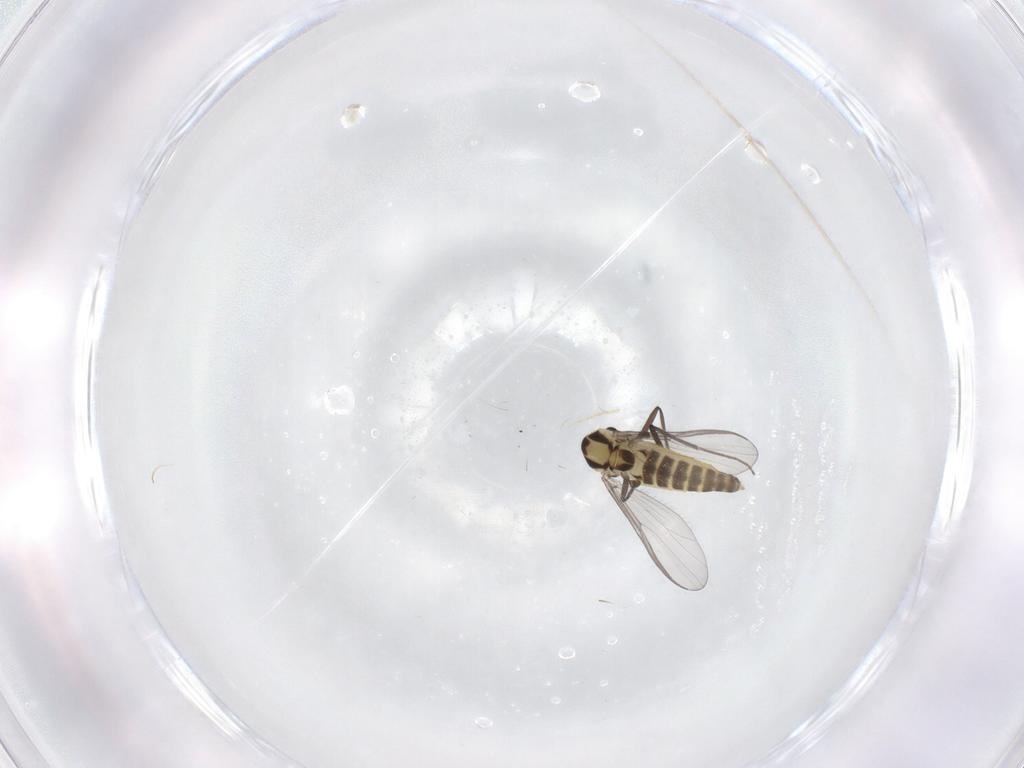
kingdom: Animalia
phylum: Arthropoda
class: Insecta
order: Diptera
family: Chironomidae
